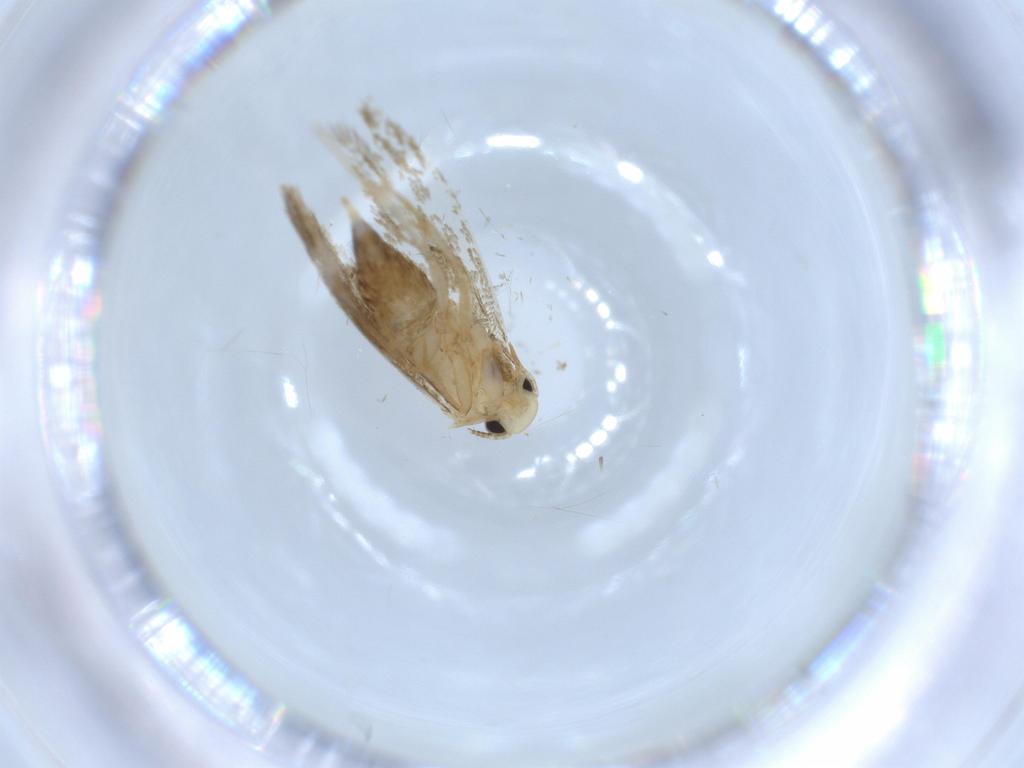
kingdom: Animalia
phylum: Arthropoda
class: Insecta
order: Lepidoptera
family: Tineidae
